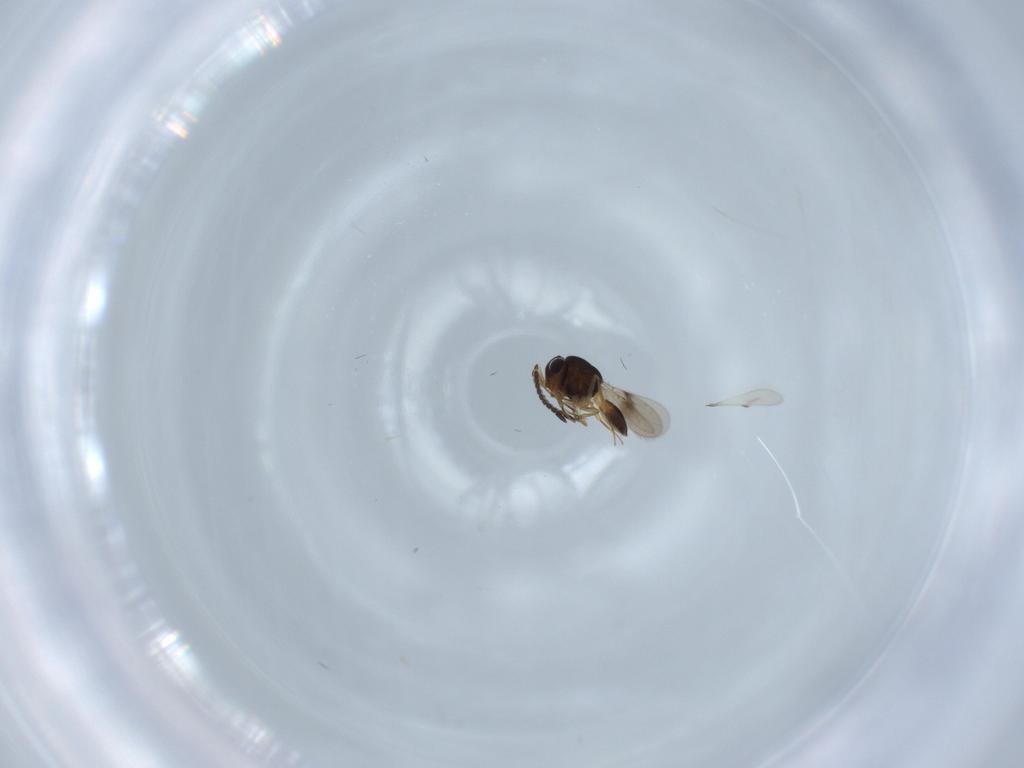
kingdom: Animalia
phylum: Arthropoda
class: Arachnida
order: Araneae
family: Pholcidae
